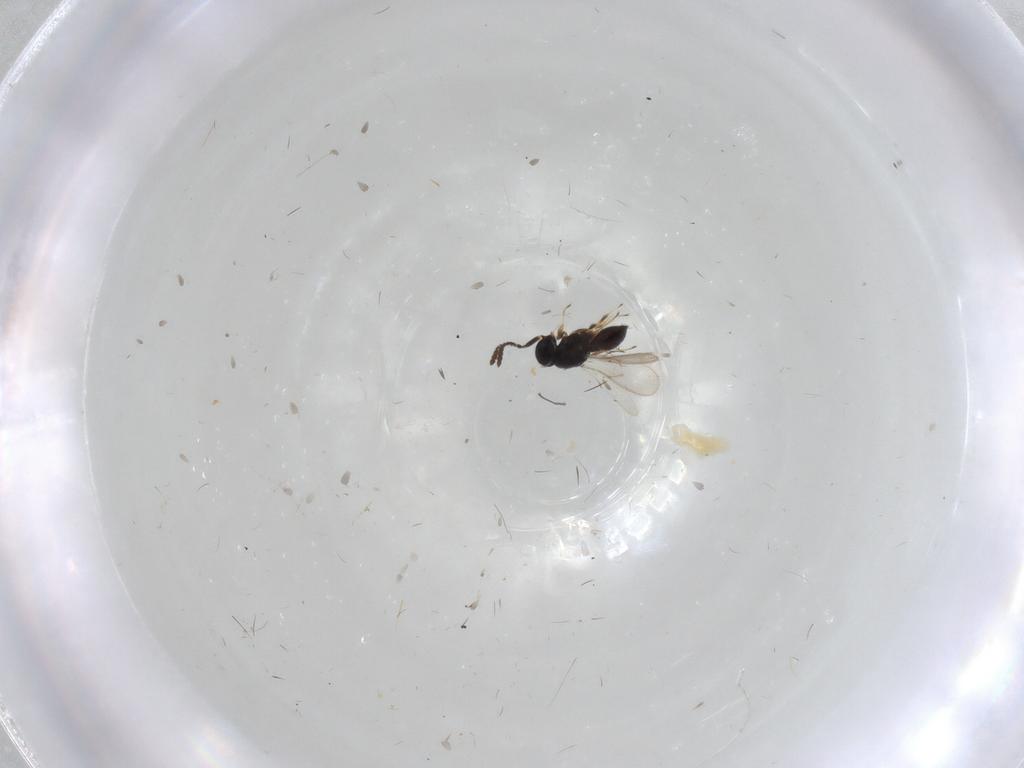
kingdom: Animalia
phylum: Arthropoda
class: Insecta
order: Hymenoptera
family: Scelionidae
